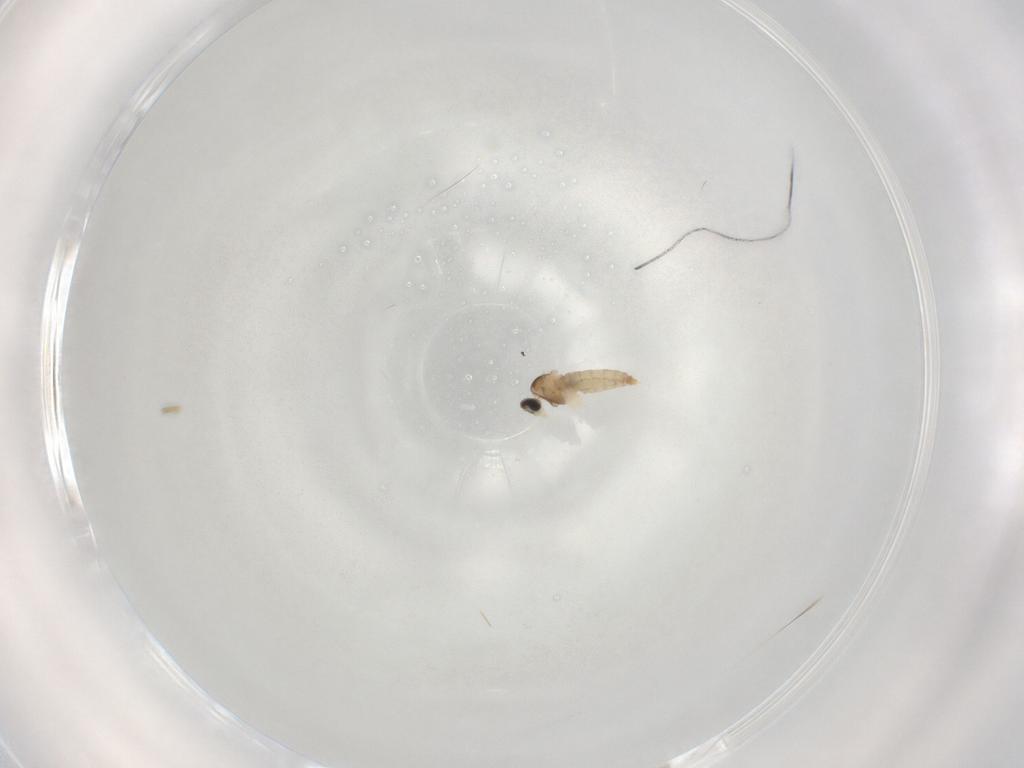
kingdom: Animalia
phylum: Arthropoda
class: Insecta
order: Diptera
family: Cecidomyiidae
